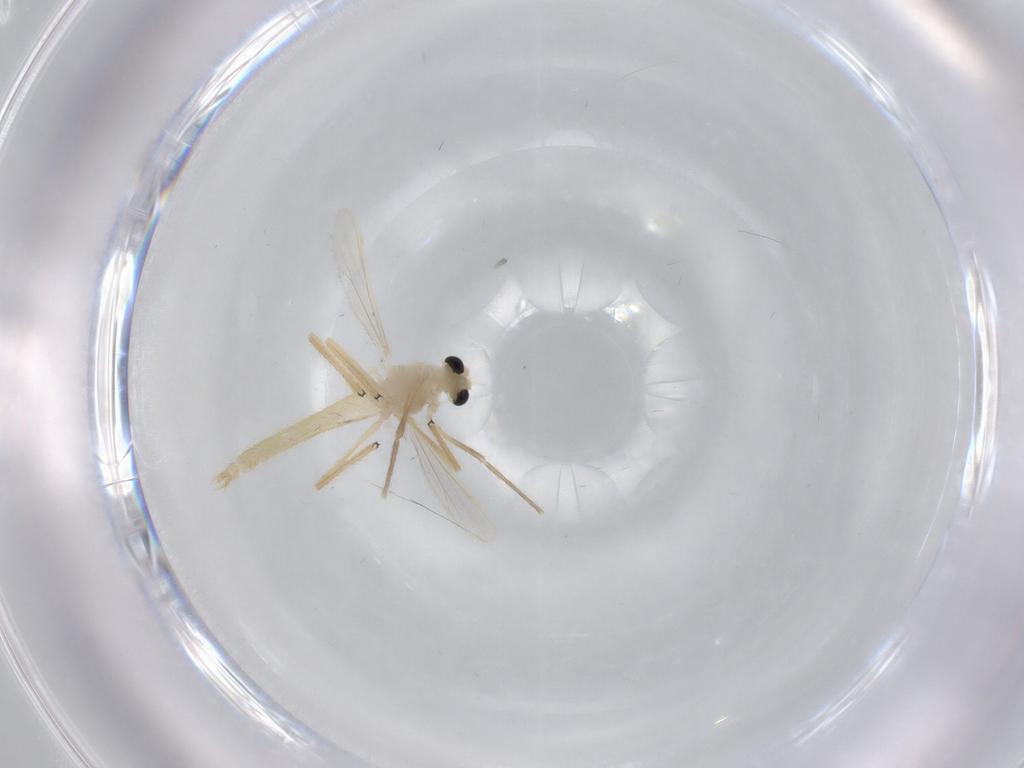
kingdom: Animalia
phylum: Arthropoda
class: Insecta
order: Diptera
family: Chironomidae
